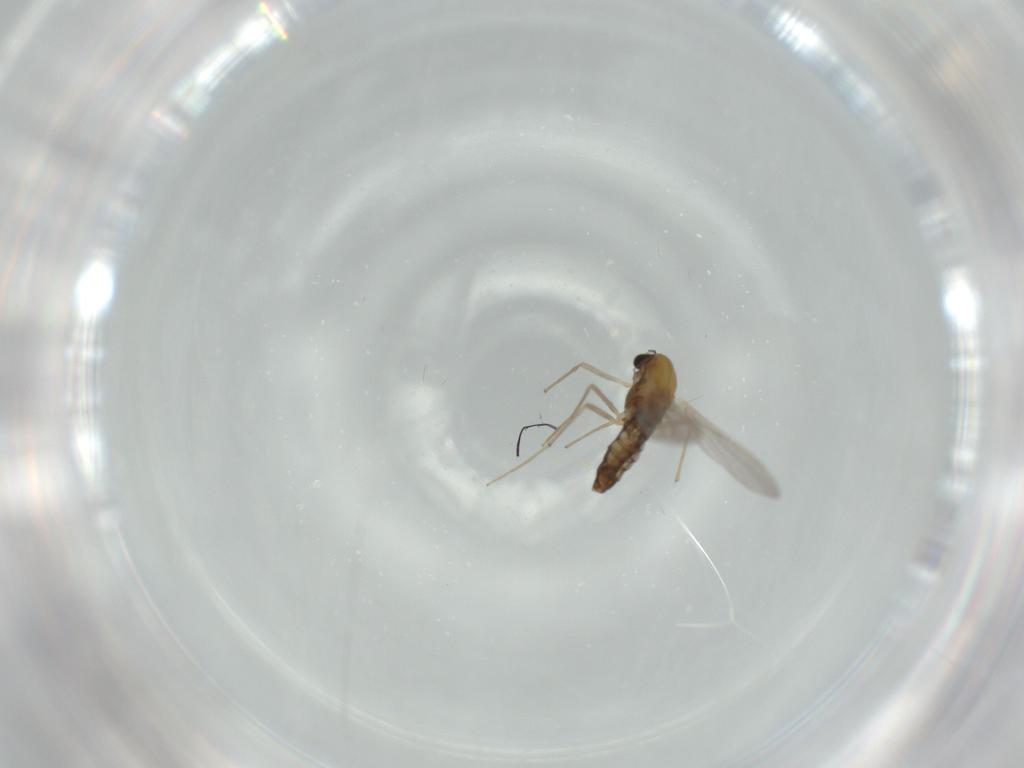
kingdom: Animalia
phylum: Arthropoda
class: Insecta
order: Diptera
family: Chironomidae
